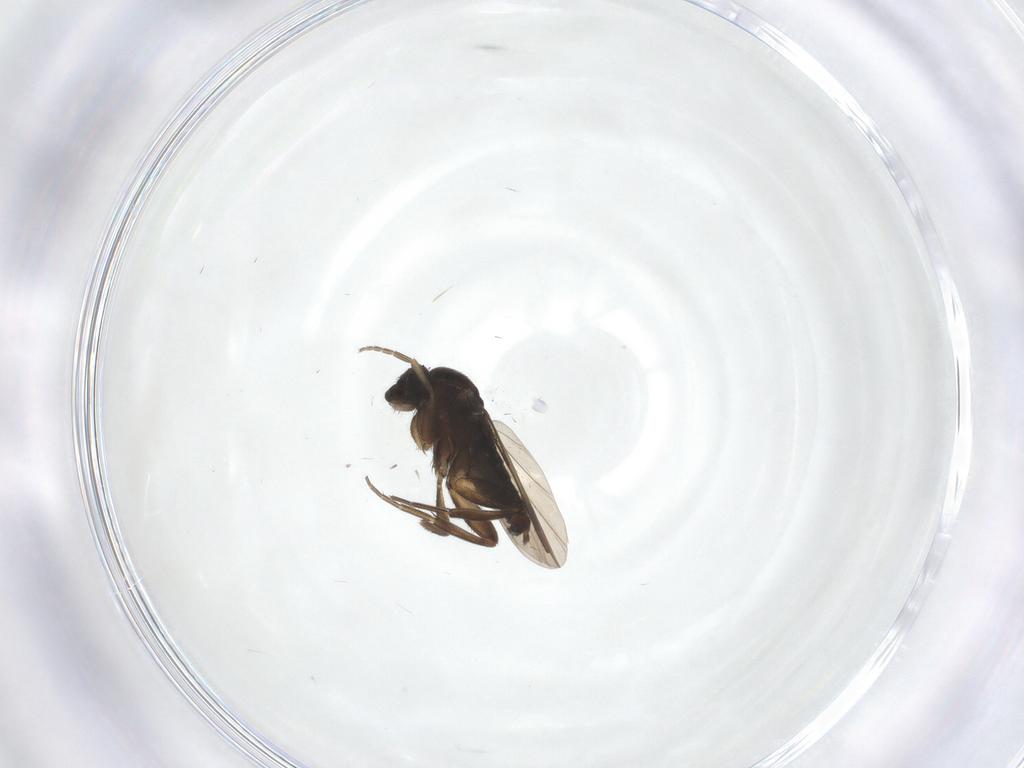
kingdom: Animalia
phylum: Arthropoda
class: Insecta
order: Diptera
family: Phoridae
